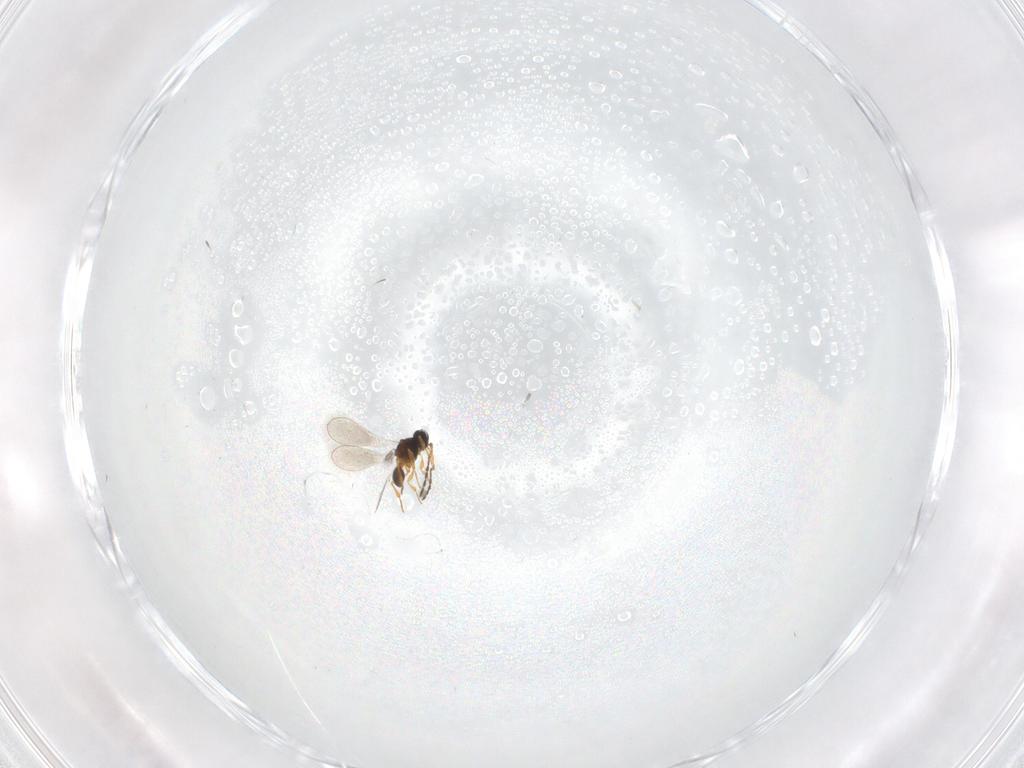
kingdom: Animalia
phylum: Arthropoda
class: Insecta
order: Hymenoptera
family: Platygastridae
